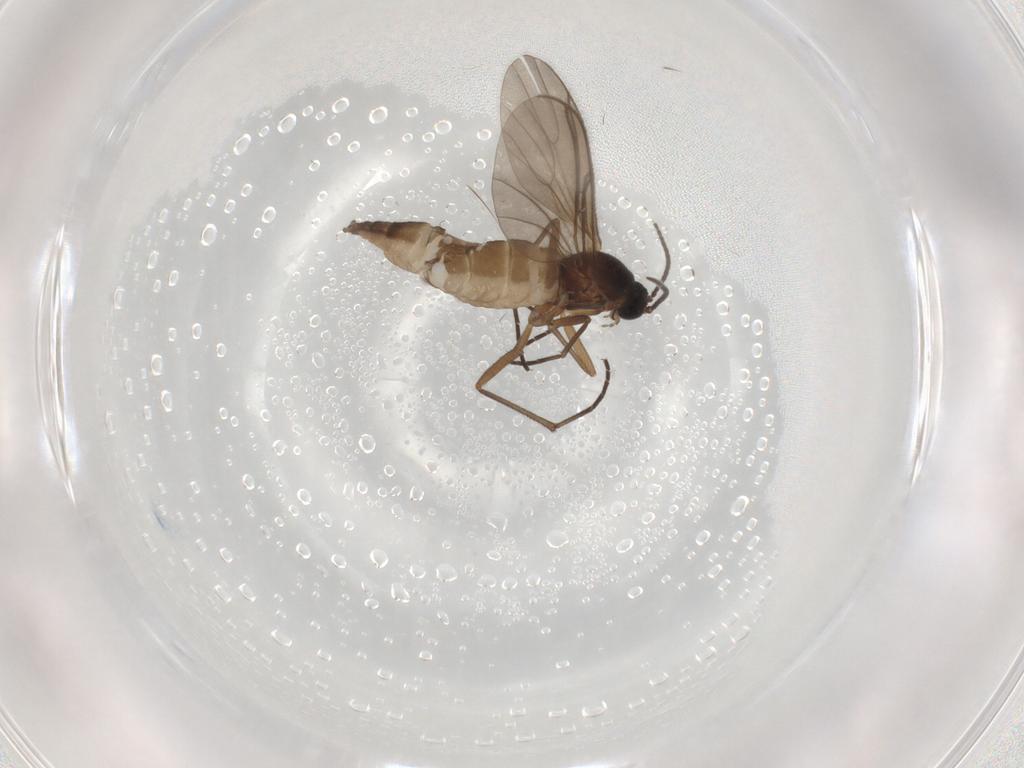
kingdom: Animalia
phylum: Arthropoda
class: Insecta
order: Diptera
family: Sciaridae
